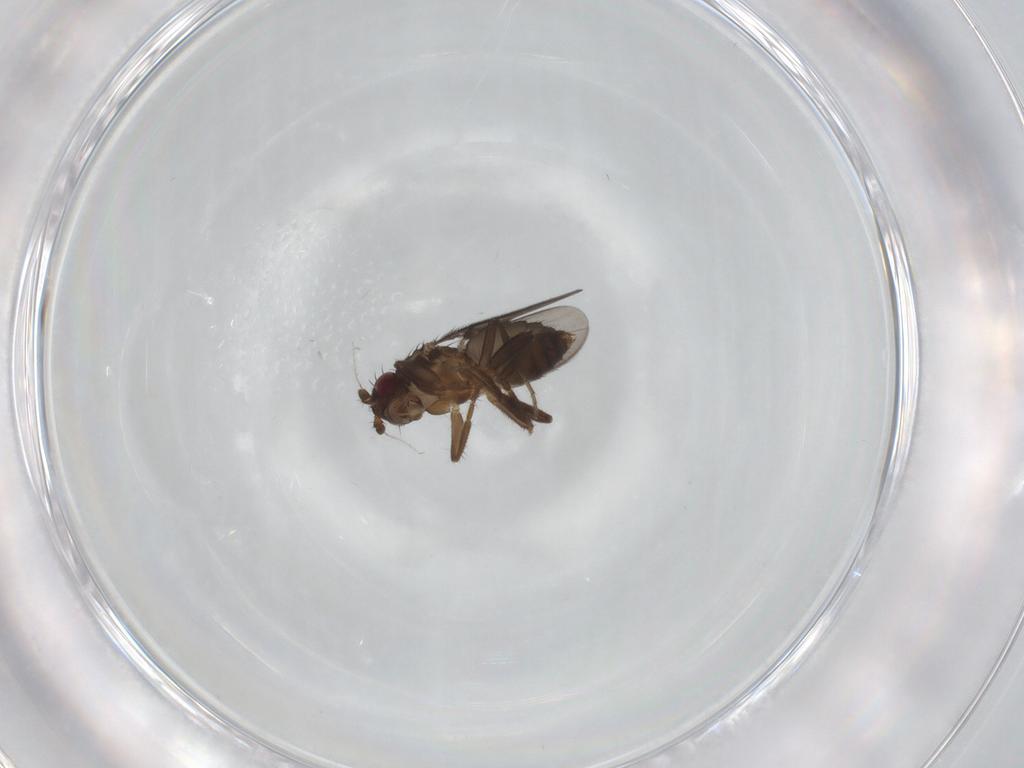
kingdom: Animalia
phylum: Arthropoda
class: Insecta
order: Diptera
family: Sphaeroceridae
